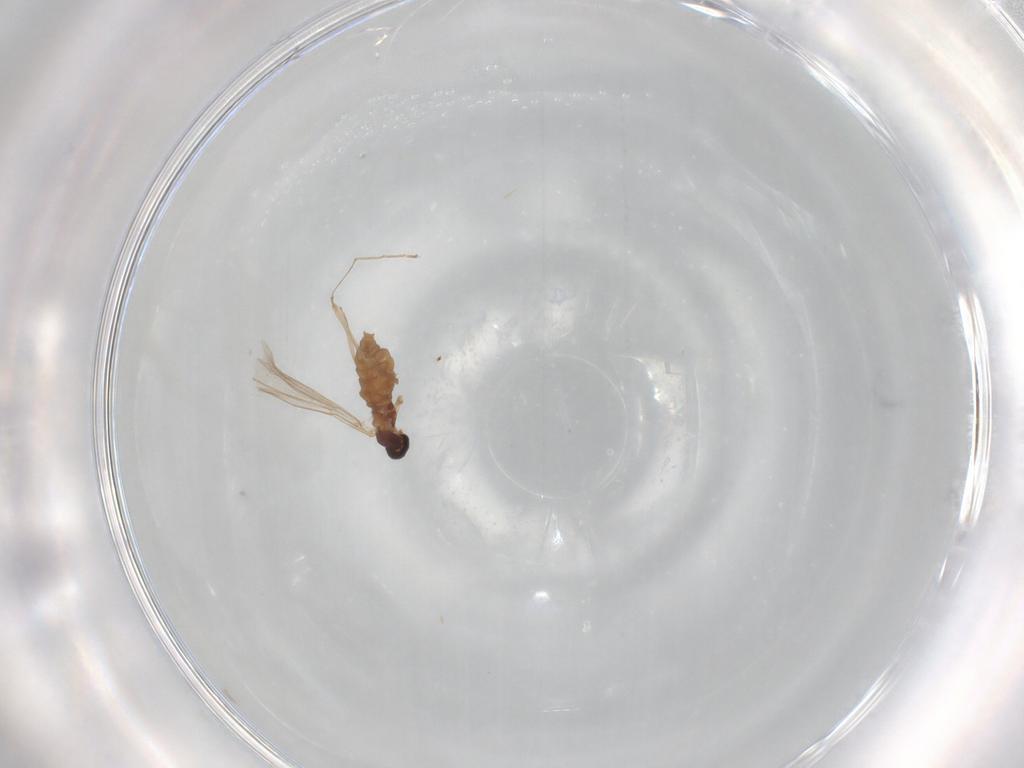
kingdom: Animalia
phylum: Arthropoda
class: Insecta
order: Diptera
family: Cecidomyiidae
